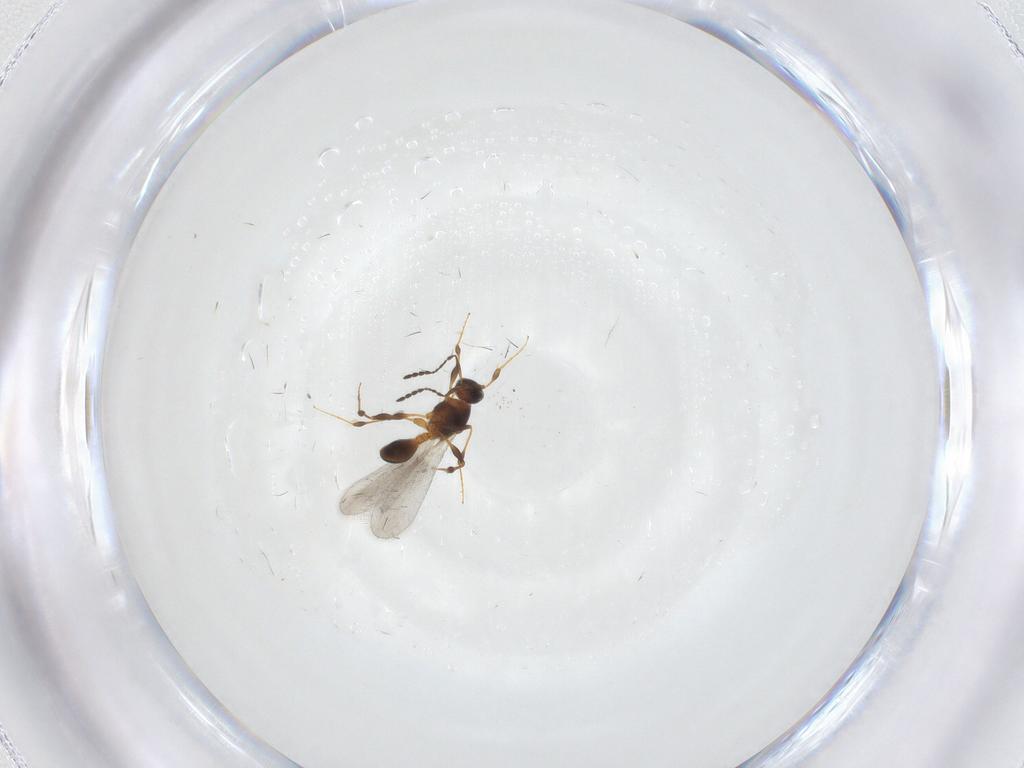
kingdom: Animalia
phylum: Arthropoda
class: Insecta
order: Hymenoptera
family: Platygastridae
